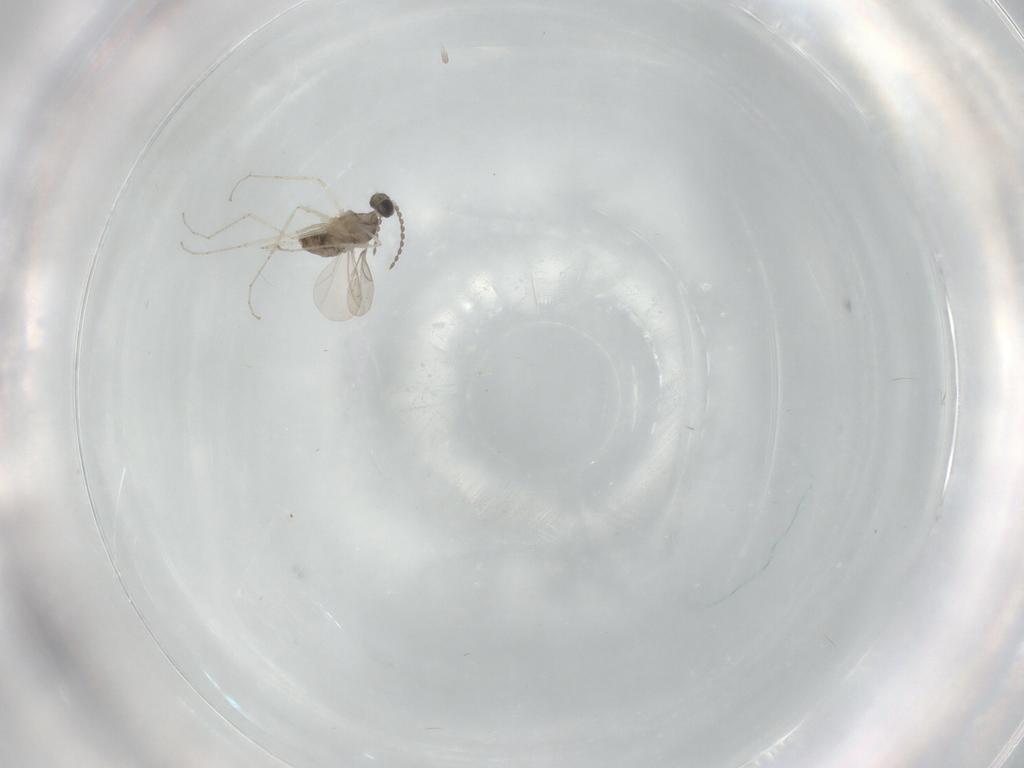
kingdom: Animalia
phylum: Arthropoda
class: Insecta
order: Diptera
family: Cecidomyiidae
